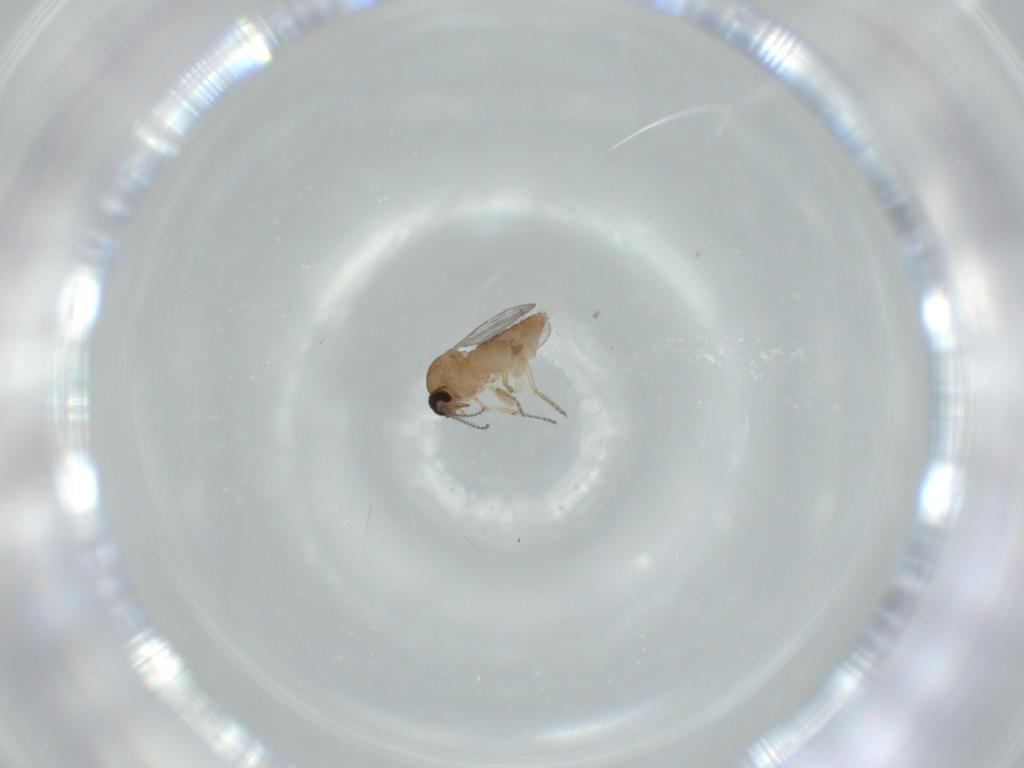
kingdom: Animalia
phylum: Arthropoda
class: Insecta
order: Diptera
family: Ceratopogonidae
